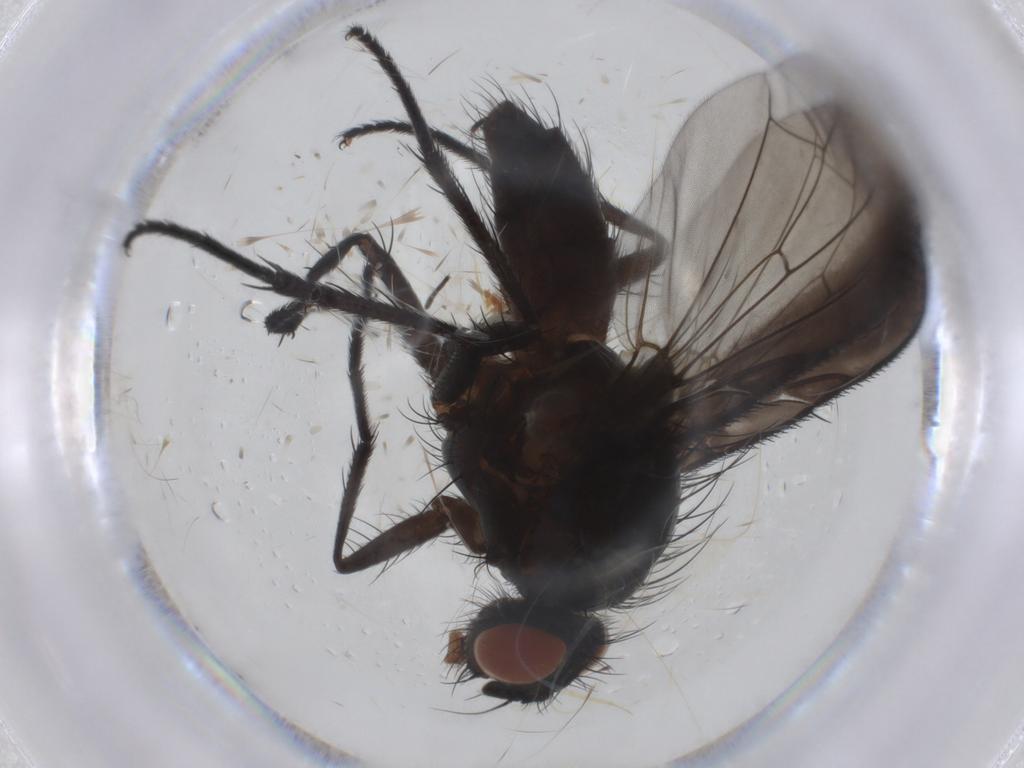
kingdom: Animalia
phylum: Arthropoda
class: Insecta
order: Diptera
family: Anthomyiidae
